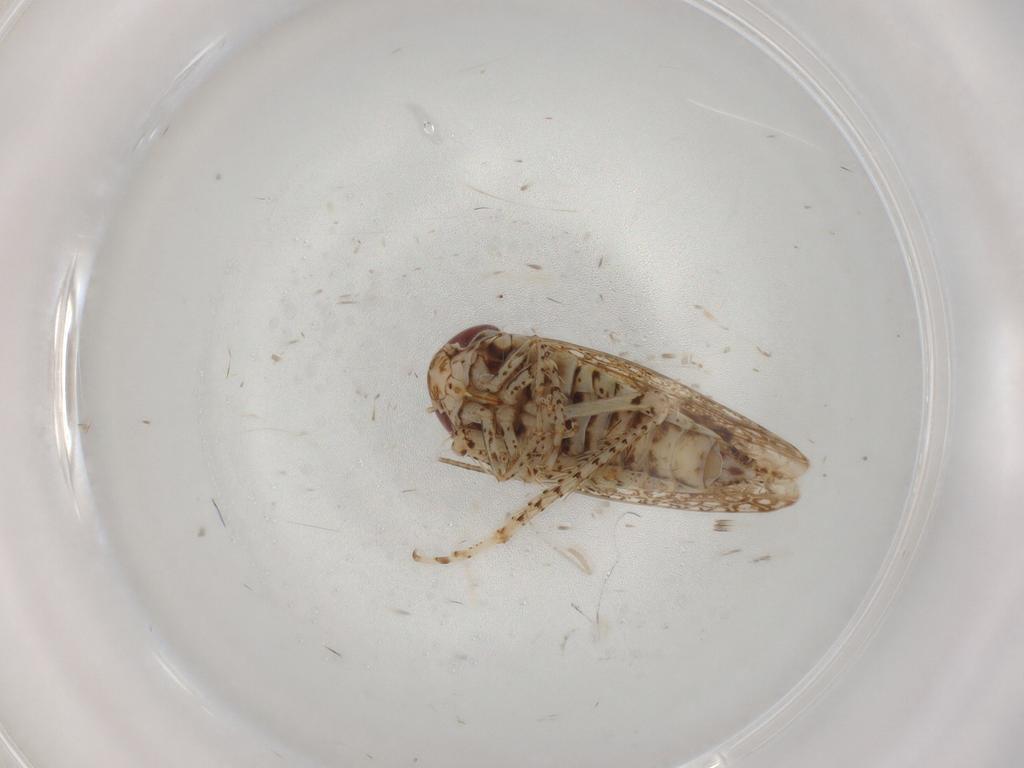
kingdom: Animalia
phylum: Arthropoda
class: Insecta
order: Hemiptera
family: Cicadellidae
